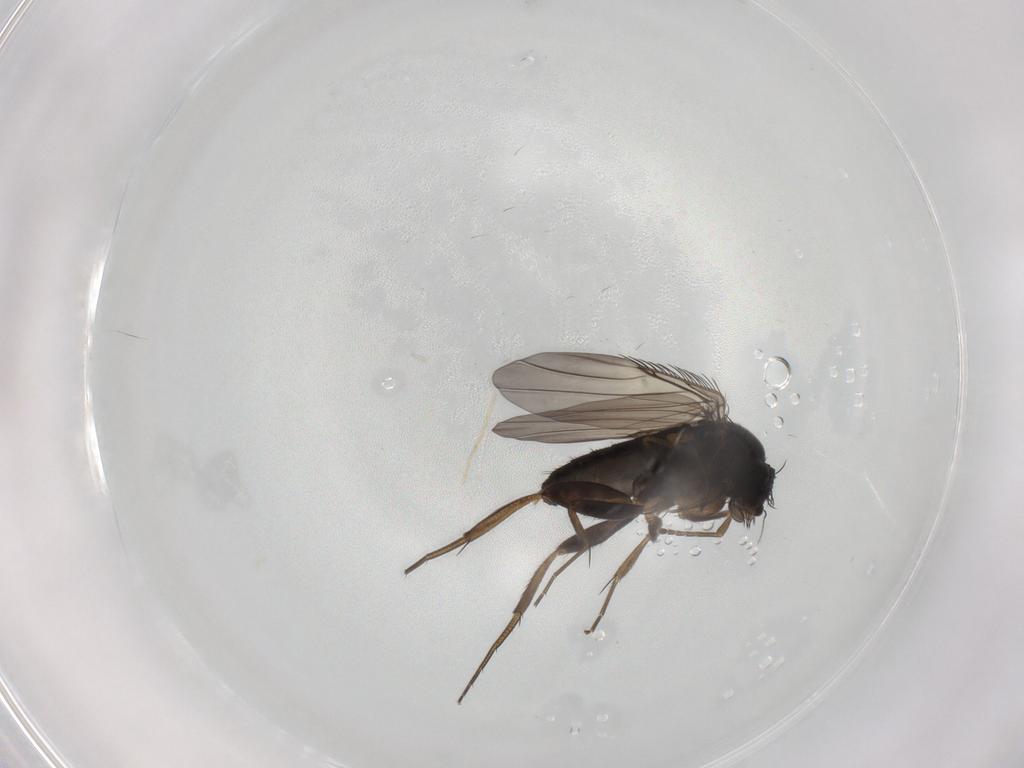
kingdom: Animalia
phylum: Arthropoda
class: Insecta
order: Diptera
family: Phoridae
